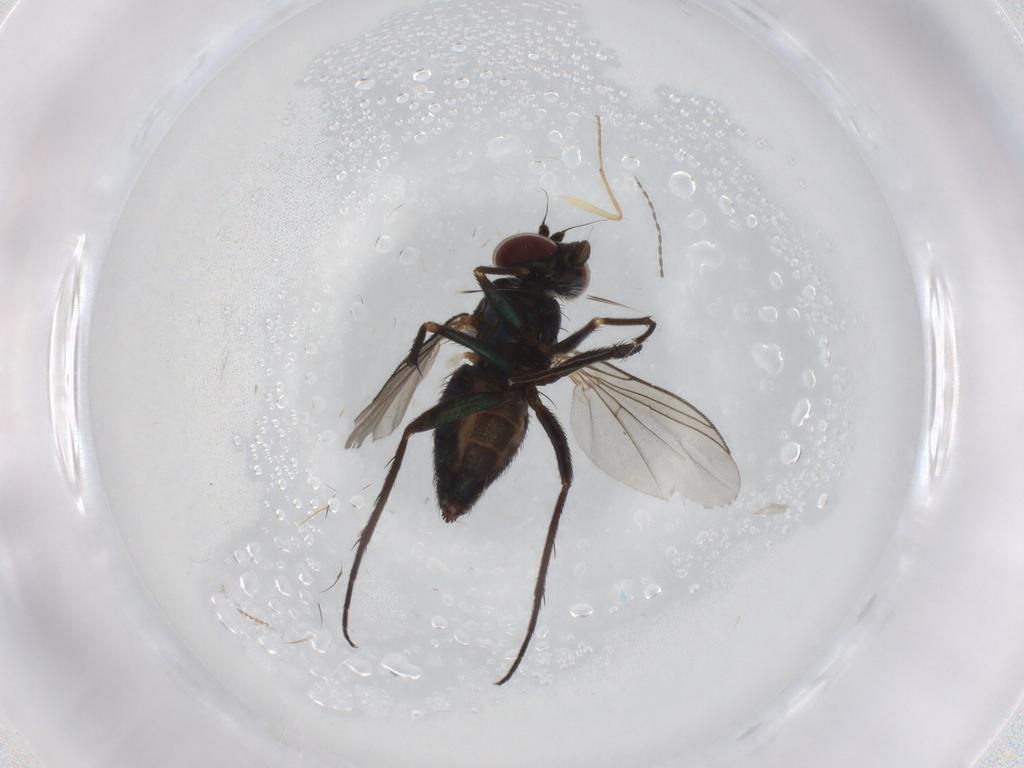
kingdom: Animalia
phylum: Arthropoda
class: Insecta
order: Diptera
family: Dolichopodidae
